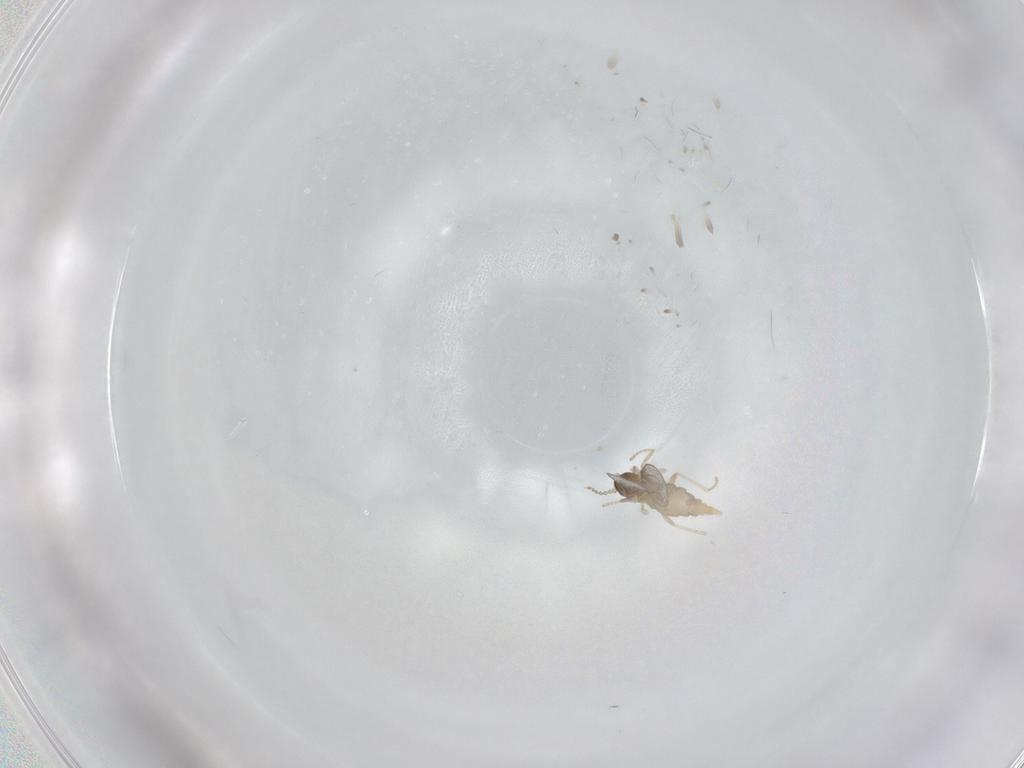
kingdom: Animalia
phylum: Arthropoda
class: Insecta
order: Diptera
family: Cecidomyiidae
